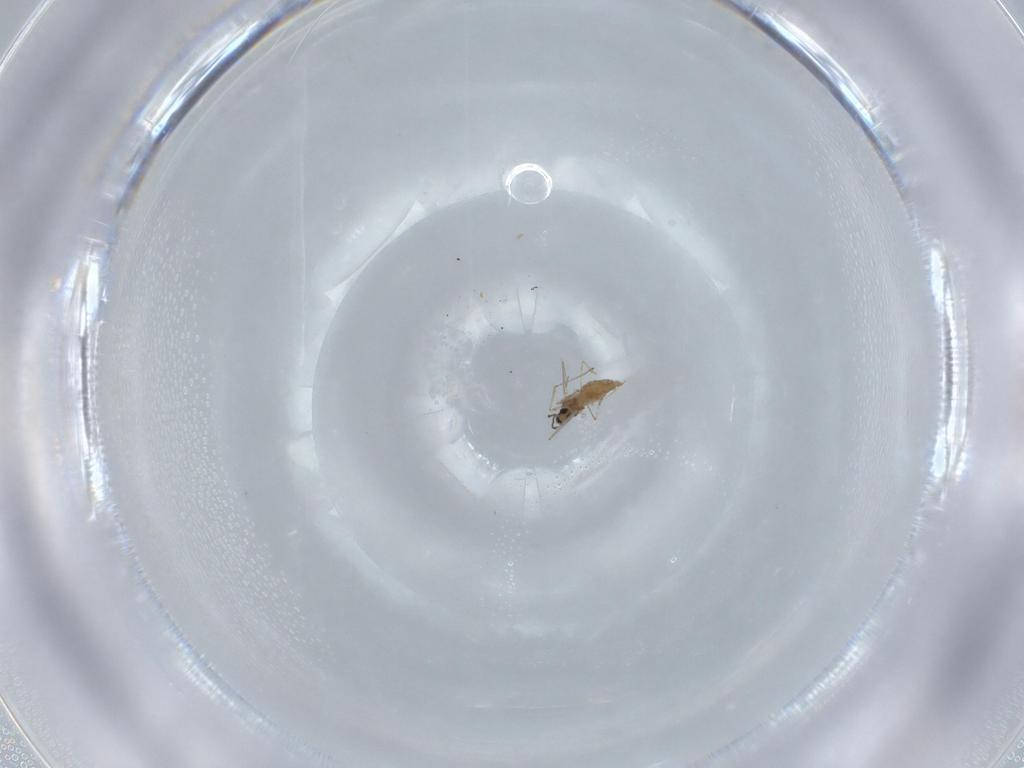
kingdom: Animalia
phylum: Arthropoda
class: Insecta
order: Diptera
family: Cecidomyiidae
